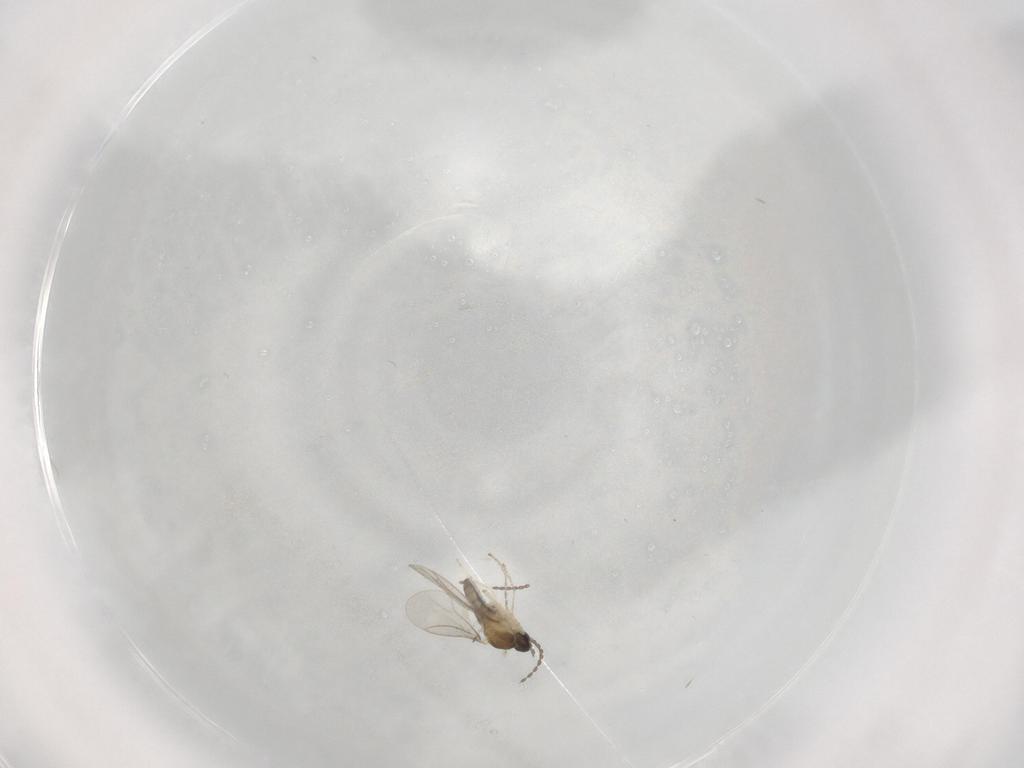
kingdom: Animalia
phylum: Arthropoda
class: Insecta
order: Diptera
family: Cecidomyiidae
